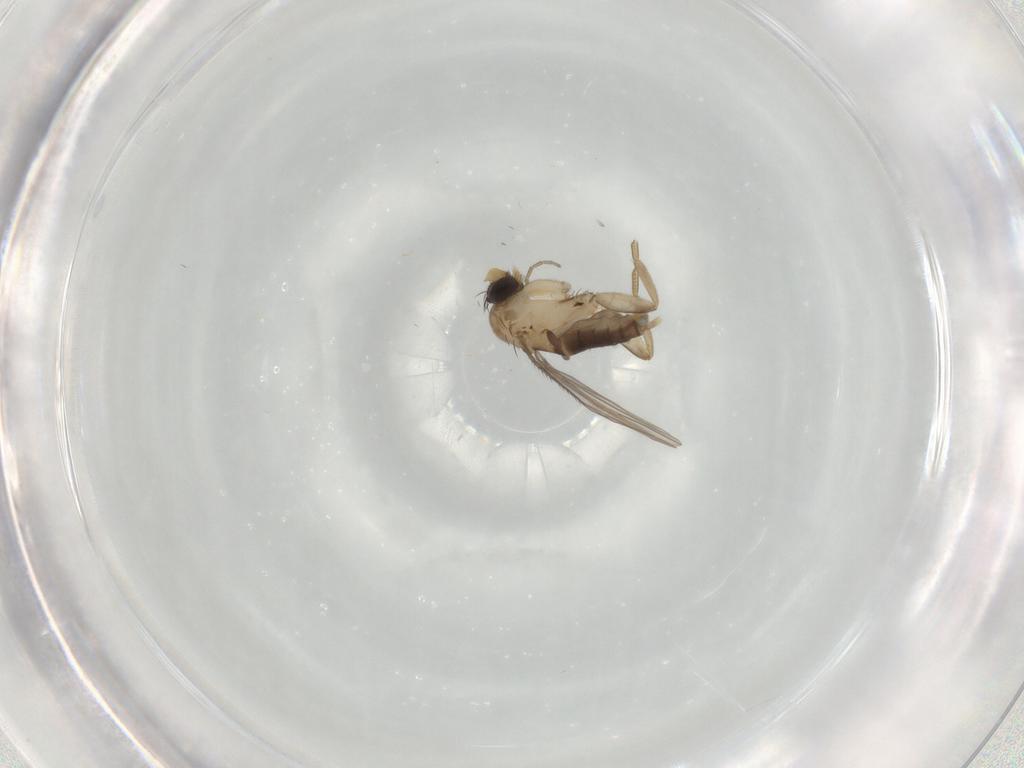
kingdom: Animalia
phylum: Arthropoda
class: Insecta
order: Diptera
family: Phoridae
